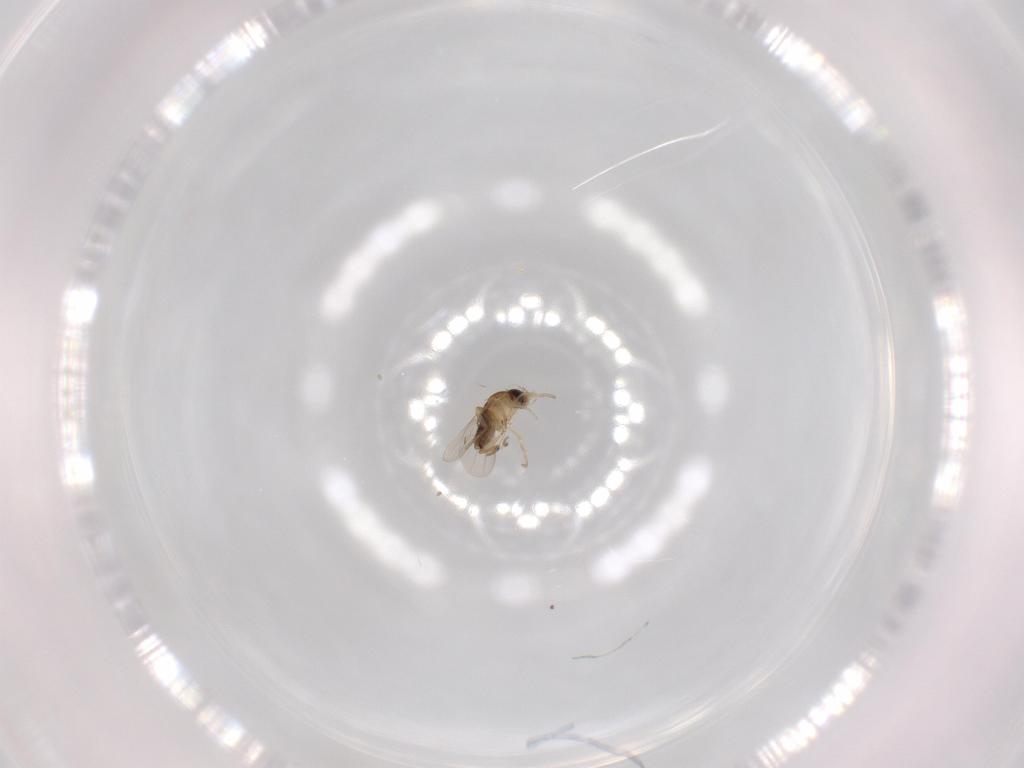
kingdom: Animalia
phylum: Arthropoda
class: Insecta
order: Diptera
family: Phoridae
